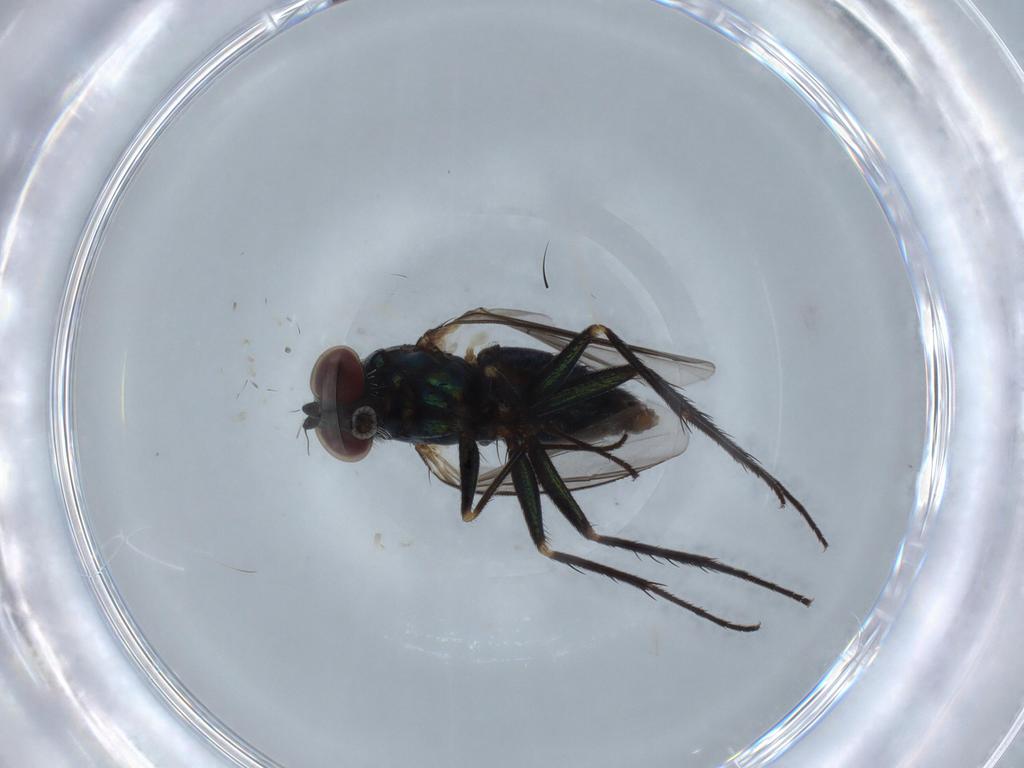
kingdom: Animalia
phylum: Arthropoda
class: Insecta
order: Diptera
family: Dolichopodidae
